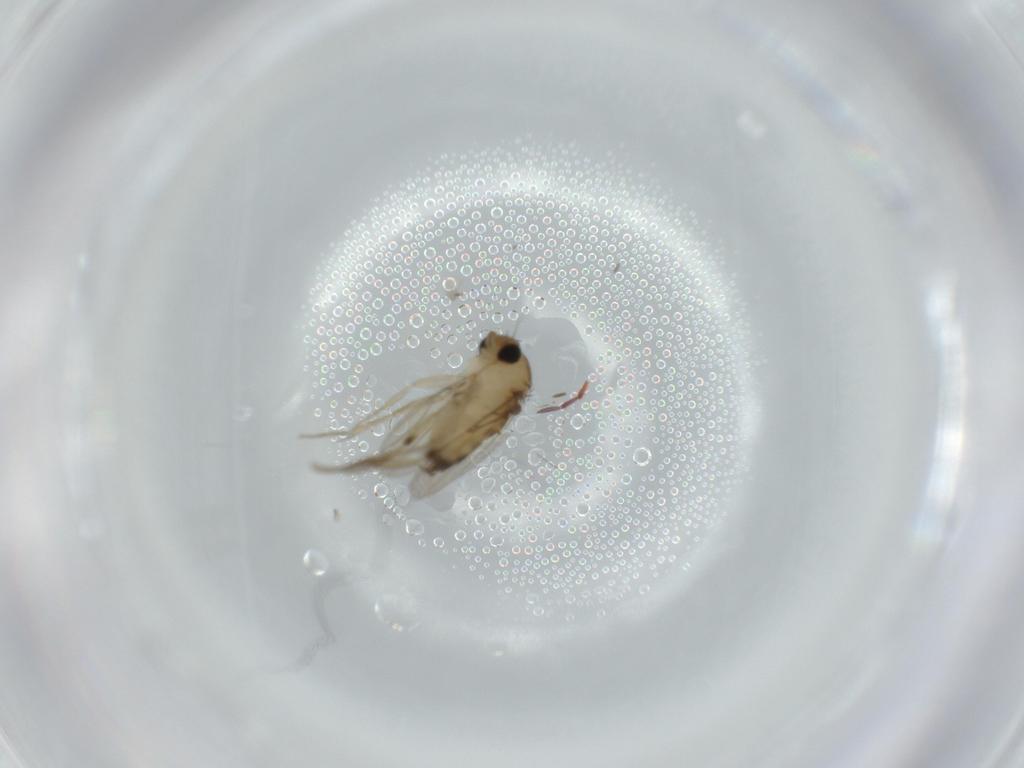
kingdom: Animalia
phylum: Arthropoda
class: Insecta
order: Diptera
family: Phoridae
